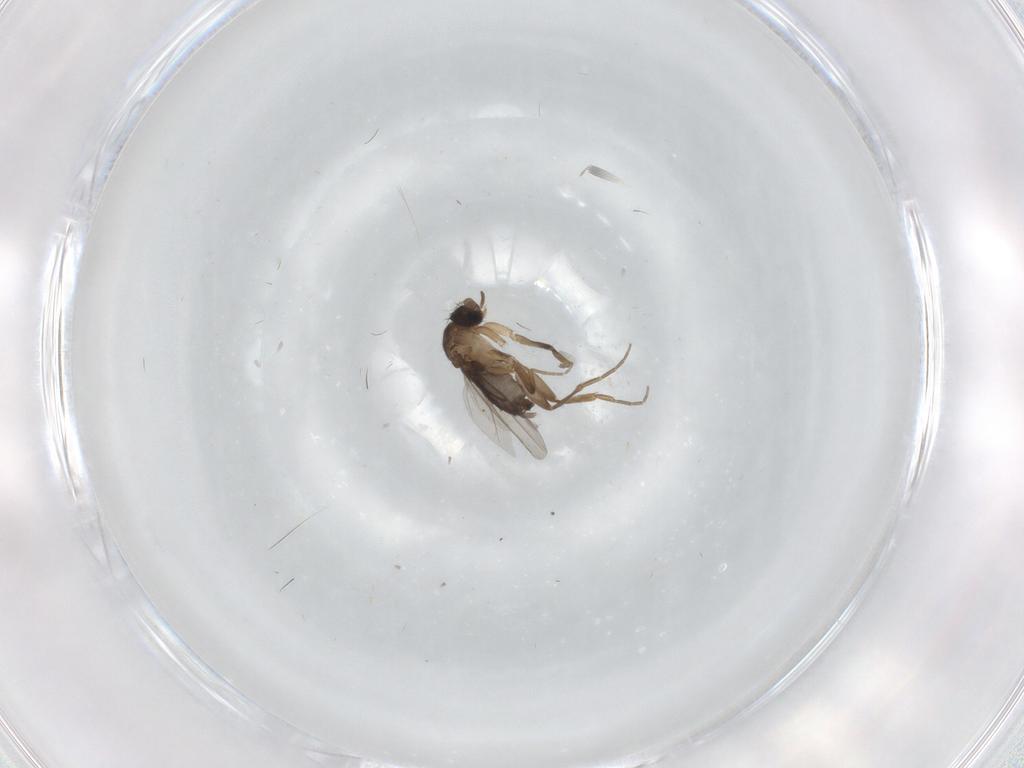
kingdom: Animalia
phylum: Arthropoda
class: Insecta
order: Diptera
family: Phoridae
